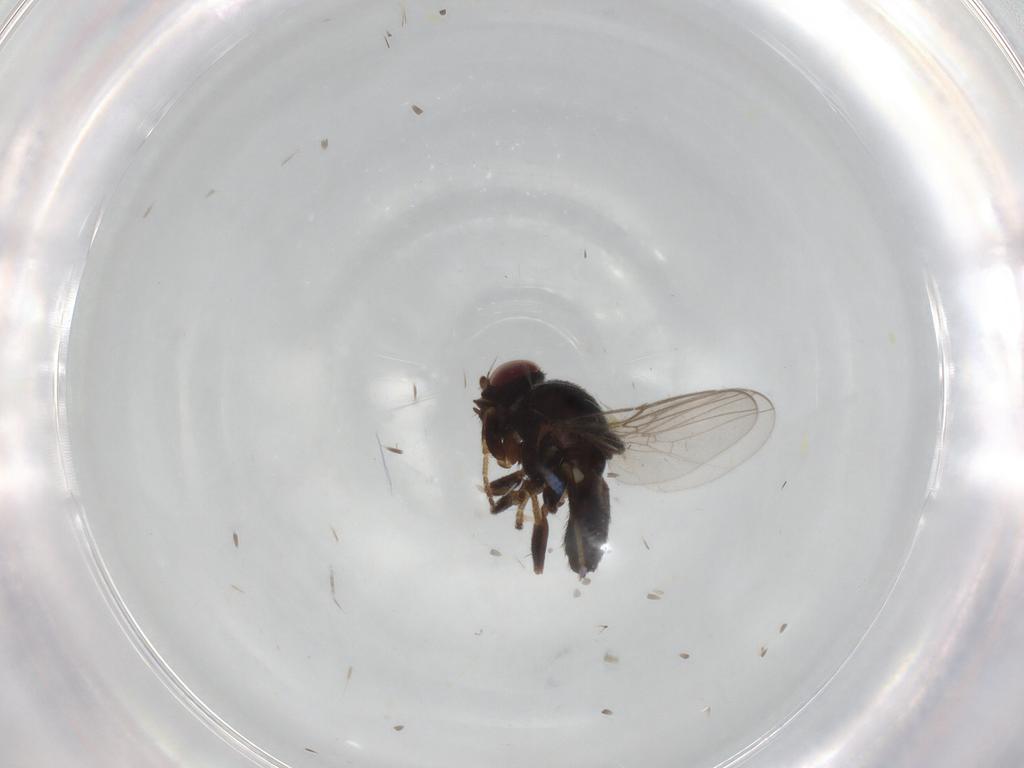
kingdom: Animalia
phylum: Arthropoda
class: Insecta
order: Diptera
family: Chloropidae
